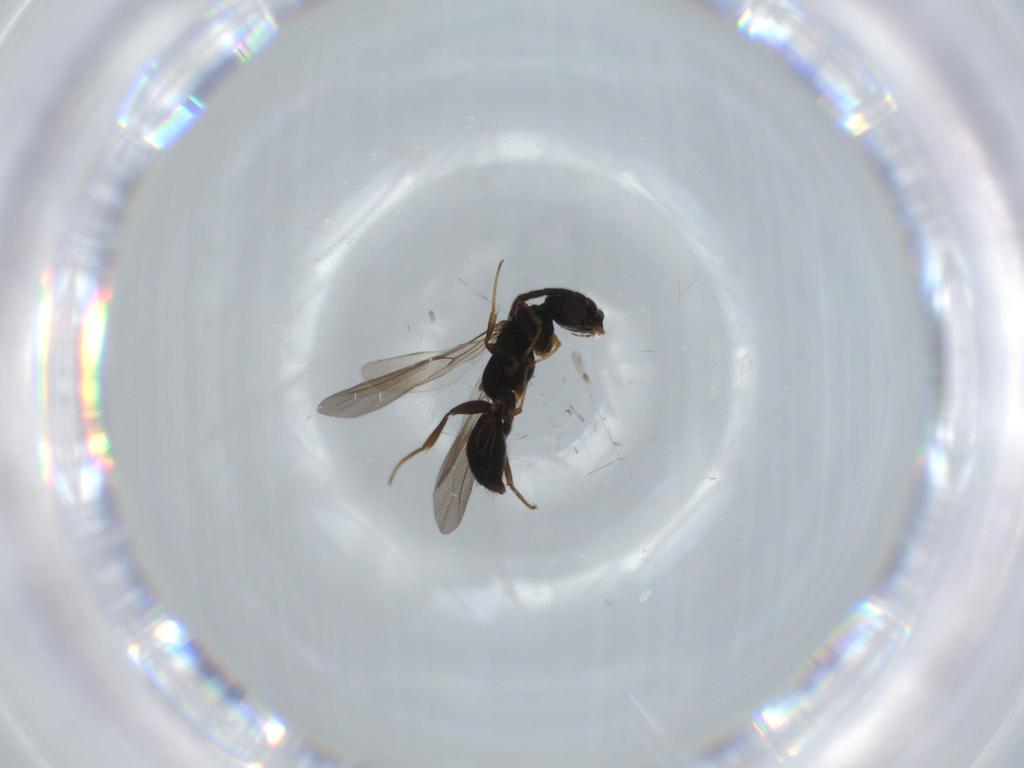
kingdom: Animalia
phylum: Arthropoda
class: Insecta
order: Hymenoptera
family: Bethylidae
